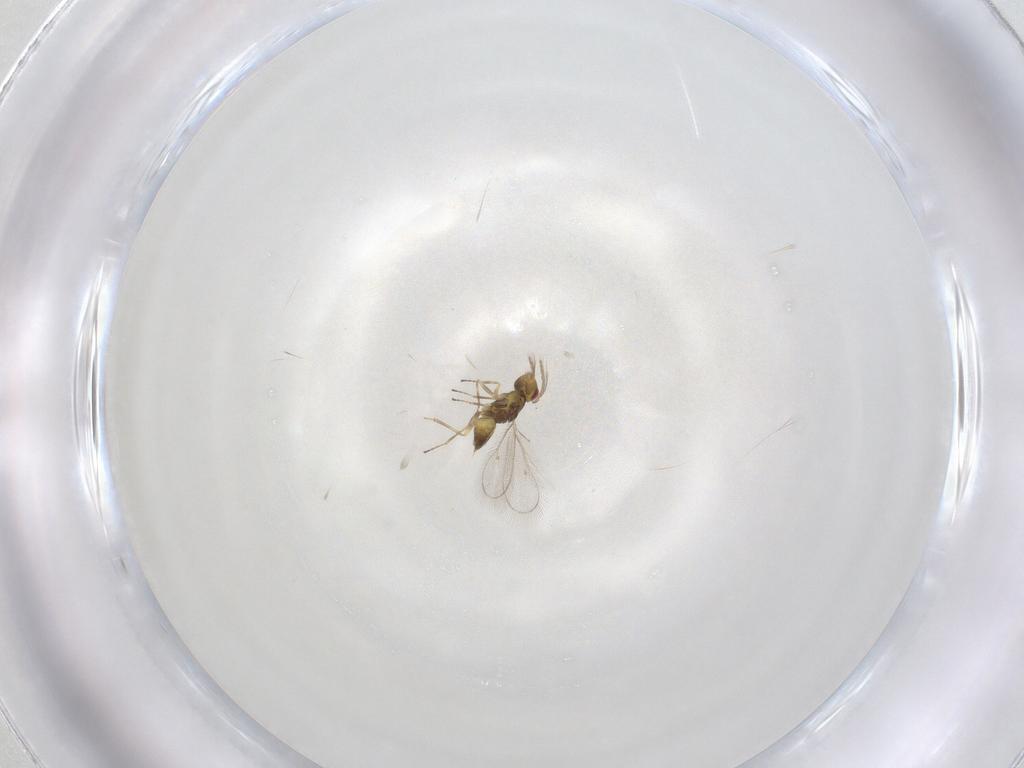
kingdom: Animalia
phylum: Arthropoda
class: Insecta
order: Hymenoptera
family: Eulophidae
